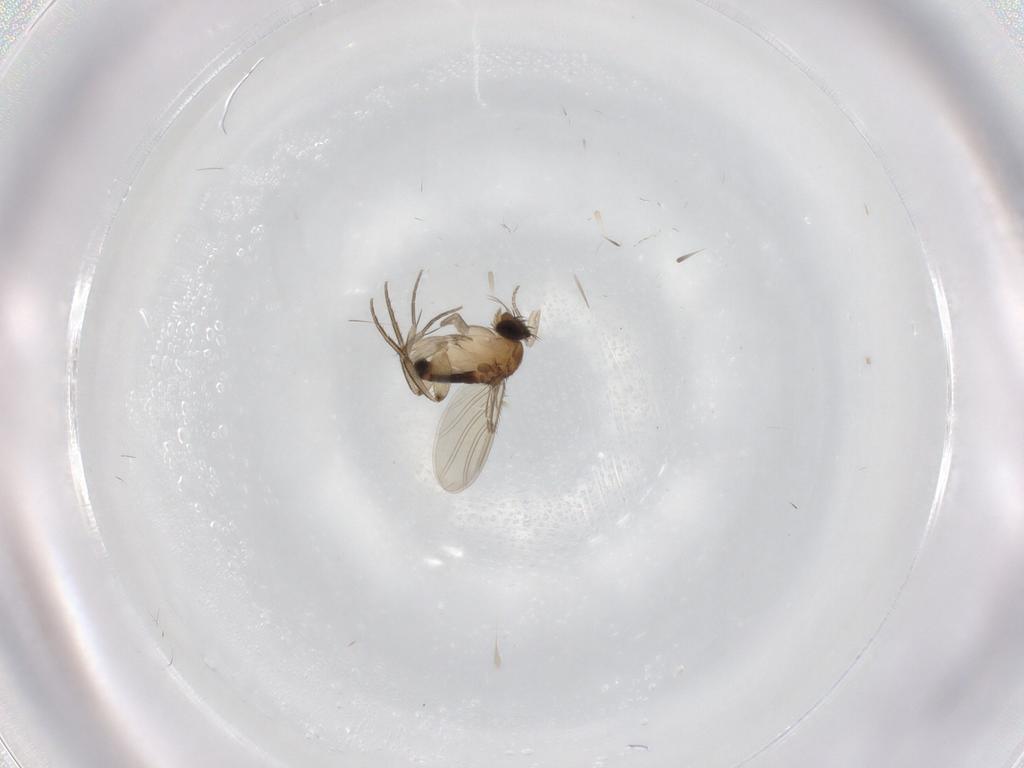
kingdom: Animalia
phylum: Arthropoda
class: Insecta
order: Diptera
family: Phoridae
